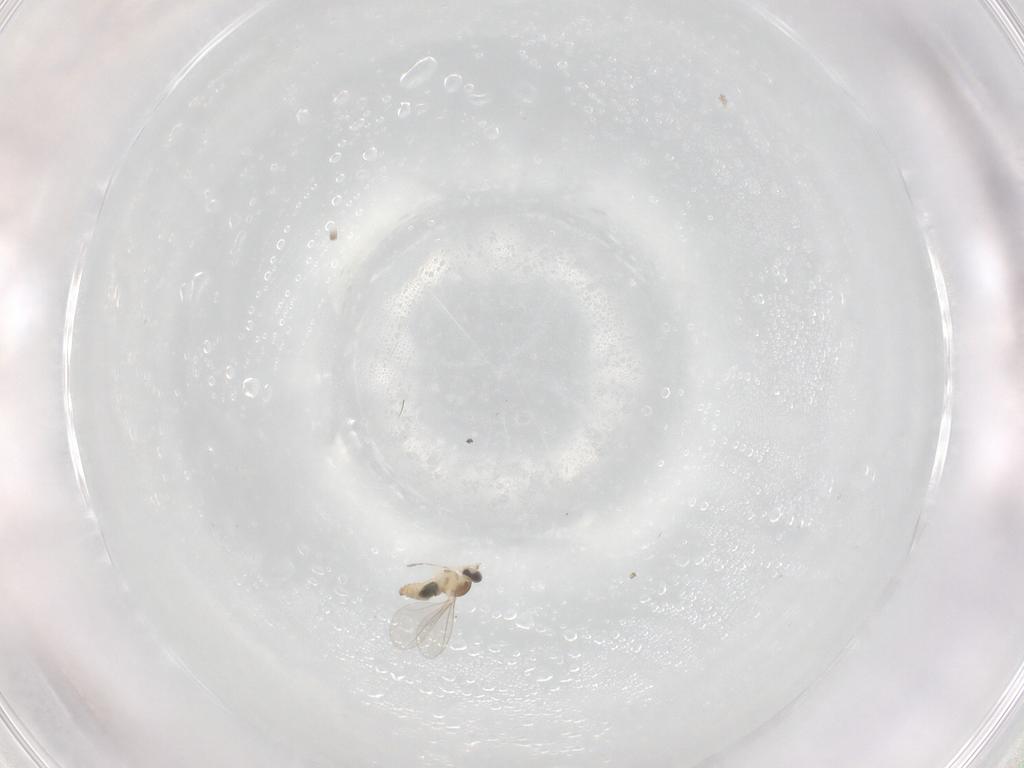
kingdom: Animalia
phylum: Arthropoda
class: Insecta
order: Diptera
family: Cecidomyiidae
